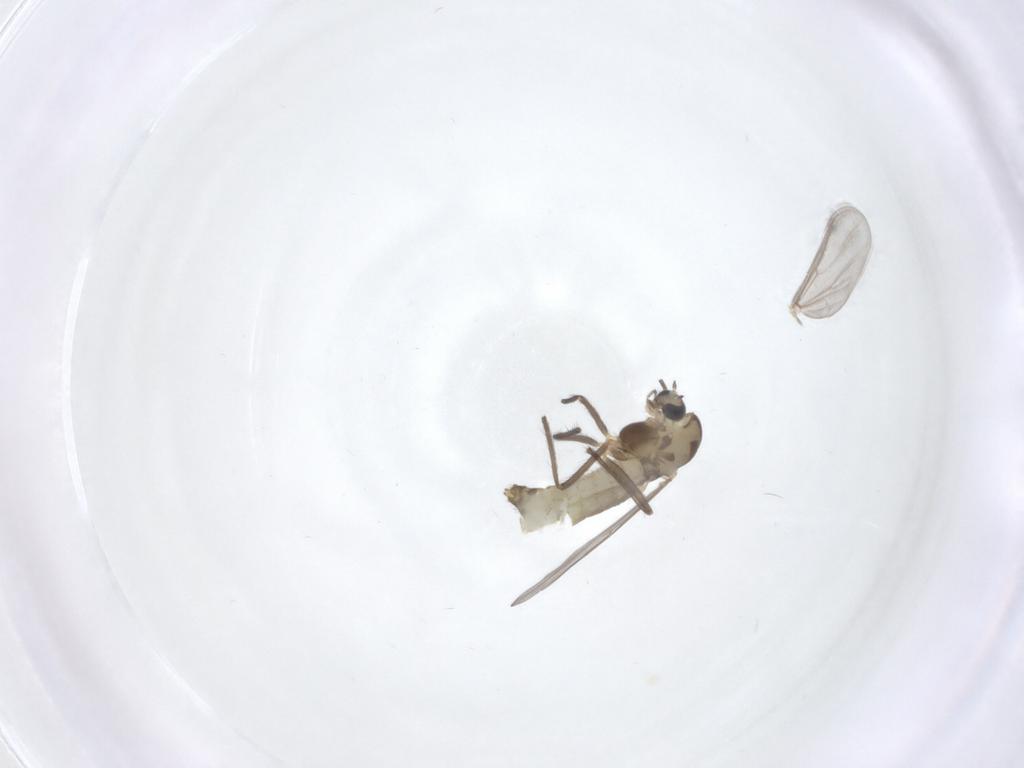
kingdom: Animalia
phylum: Arthropoda
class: Insecta
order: Diptera
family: Chironomidae
